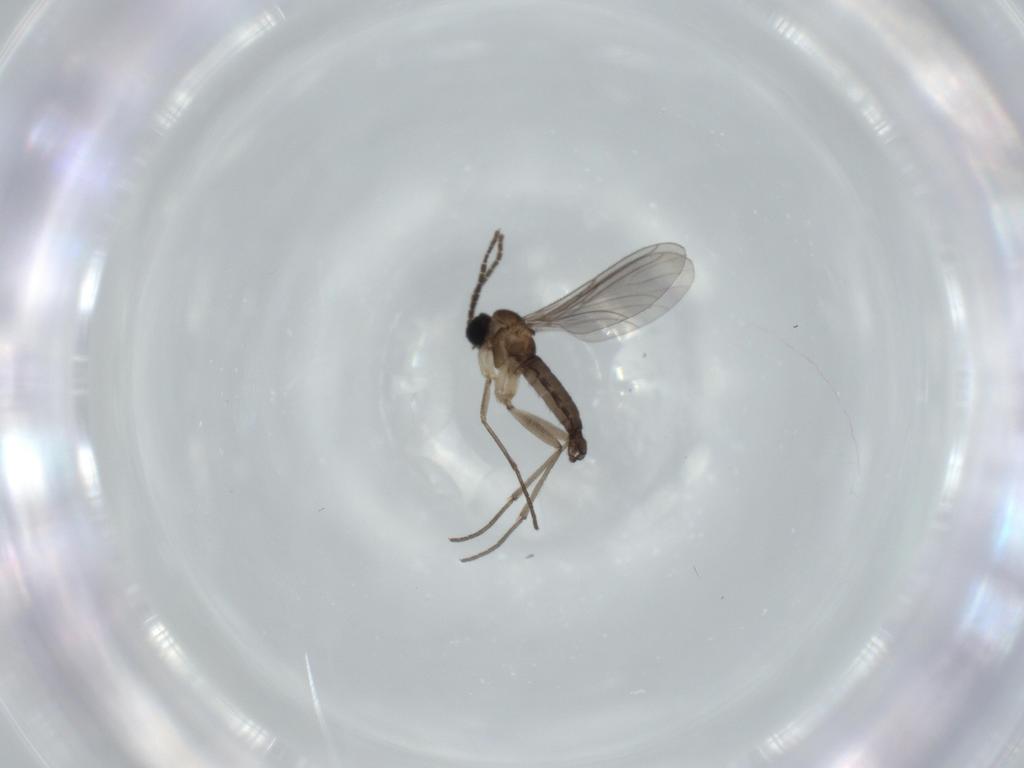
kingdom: Animalia
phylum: Arthropoda
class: Insecta
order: Diptera
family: Sciaridae
